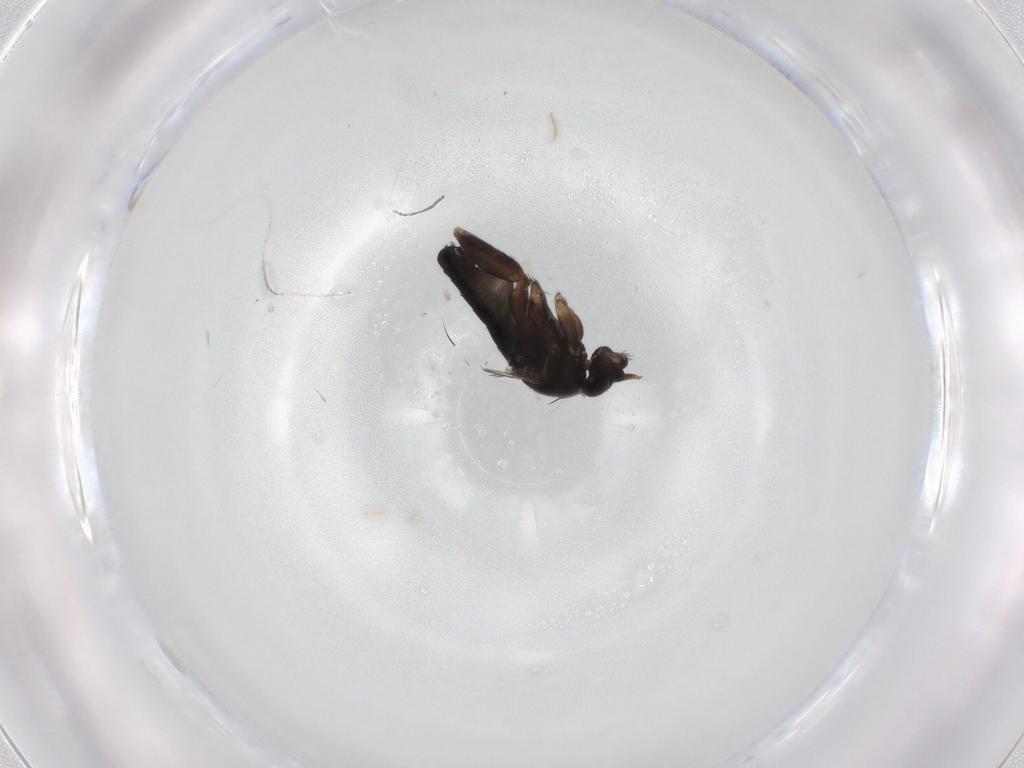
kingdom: Animalia
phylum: Arthropoda
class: Insecta
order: Diptera
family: Phoridae
